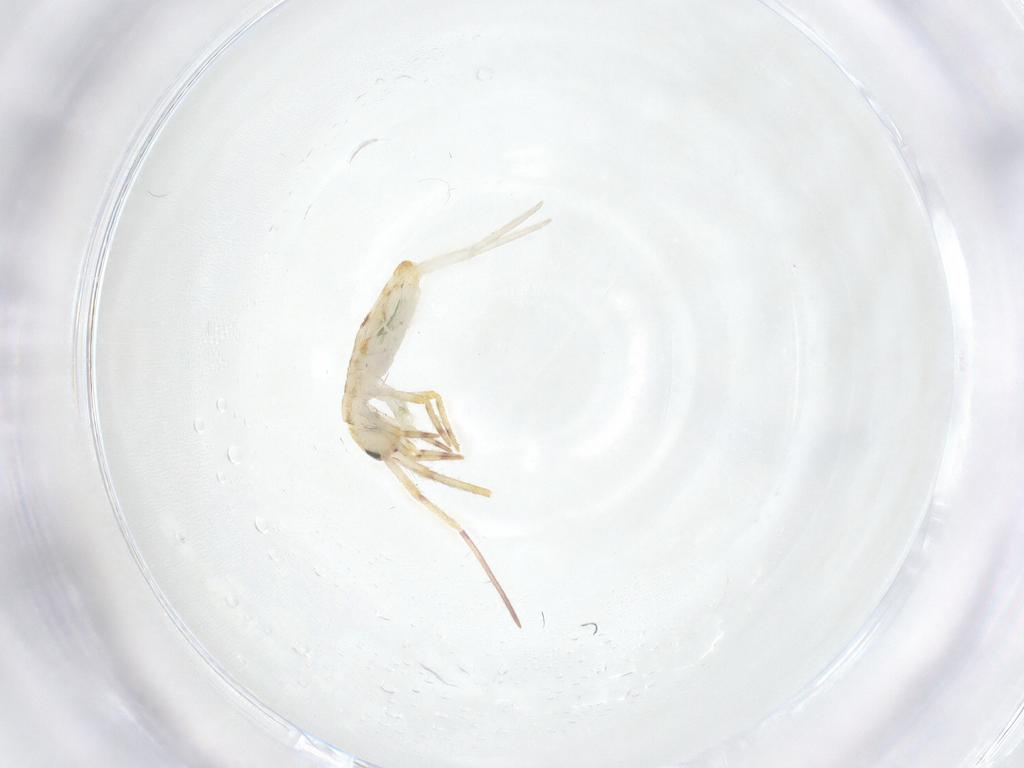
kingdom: Animalia
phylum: Arthropoda
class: Collembola
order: Entomobryomorpha
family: Entomobryidae
